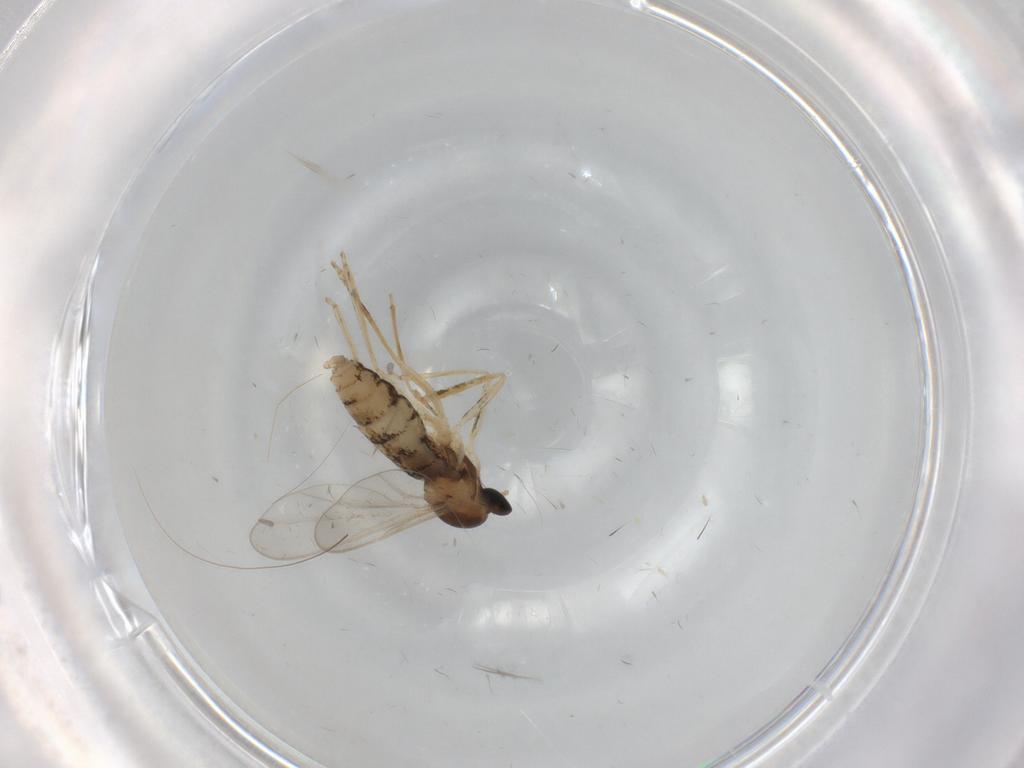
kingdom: Animalia
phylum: Arthropoda
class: Insecta
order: Diptera
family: Cecidomyiidae
